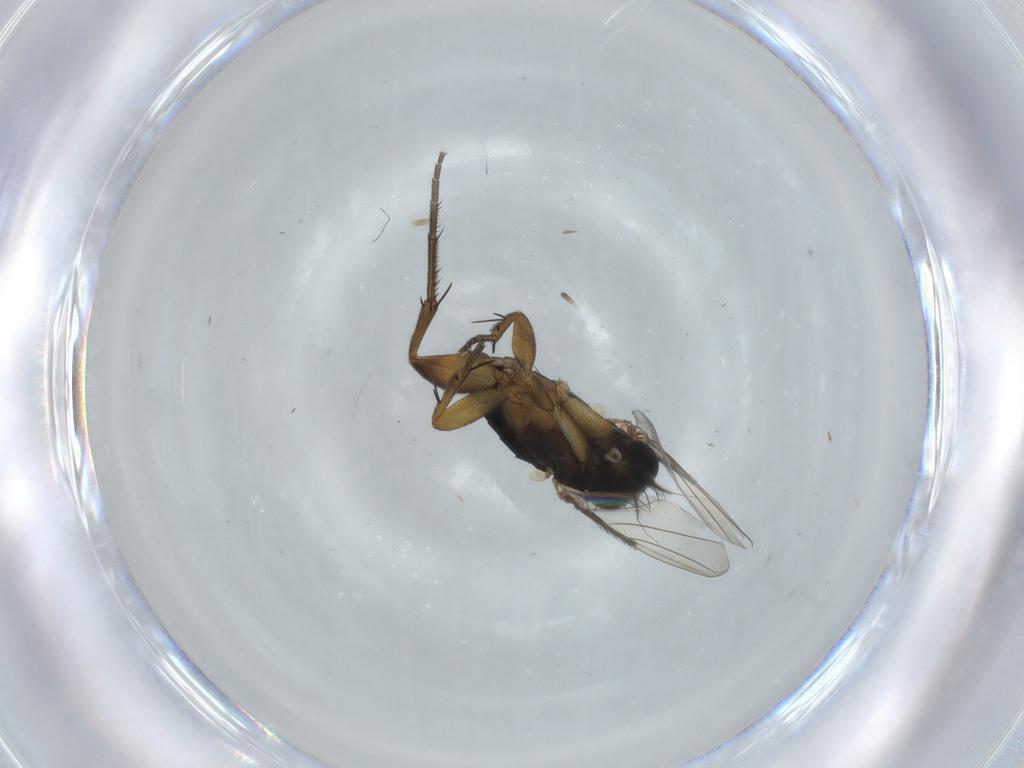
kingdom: Animalia
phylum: Arthropoda
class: Insecta
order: Diptera
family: Phoridae
